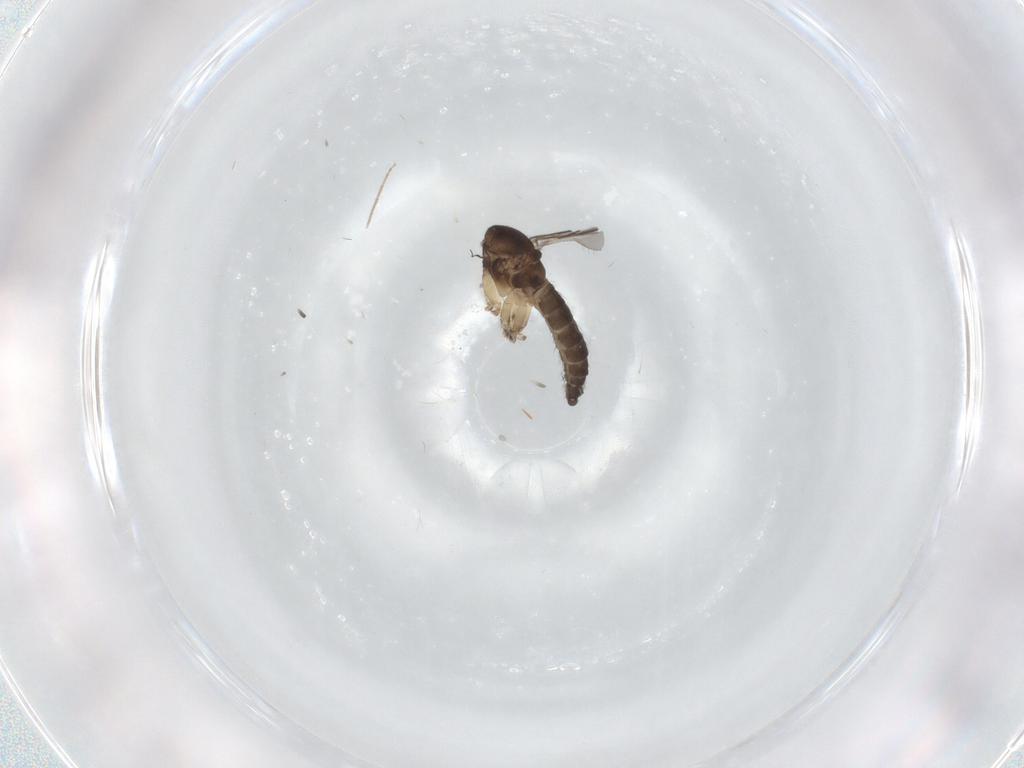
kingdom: Animalia
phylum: Arthropoda
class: Insecta
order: Diptera
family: Sciaridae
